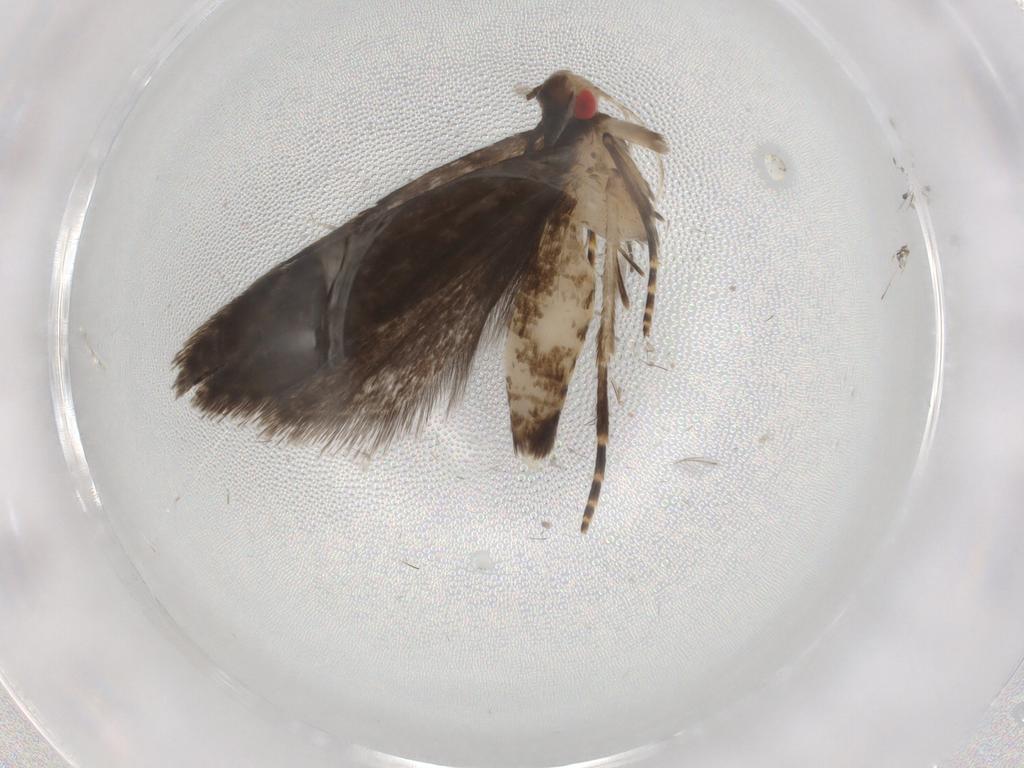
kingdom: Animalia
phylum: Arthropoda
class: Insecta
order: Lepidoptera
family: Gelechiidae
